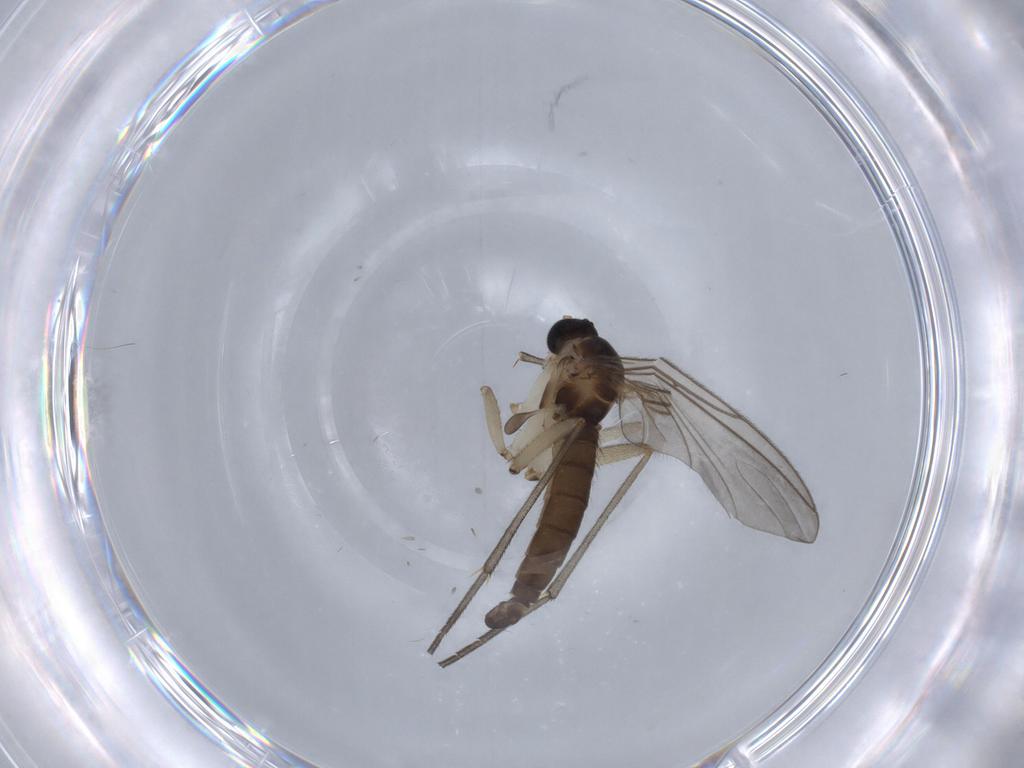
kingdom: Animalia
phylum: Arthropoda
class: Insecta
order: Diptera
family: Sciaridae
